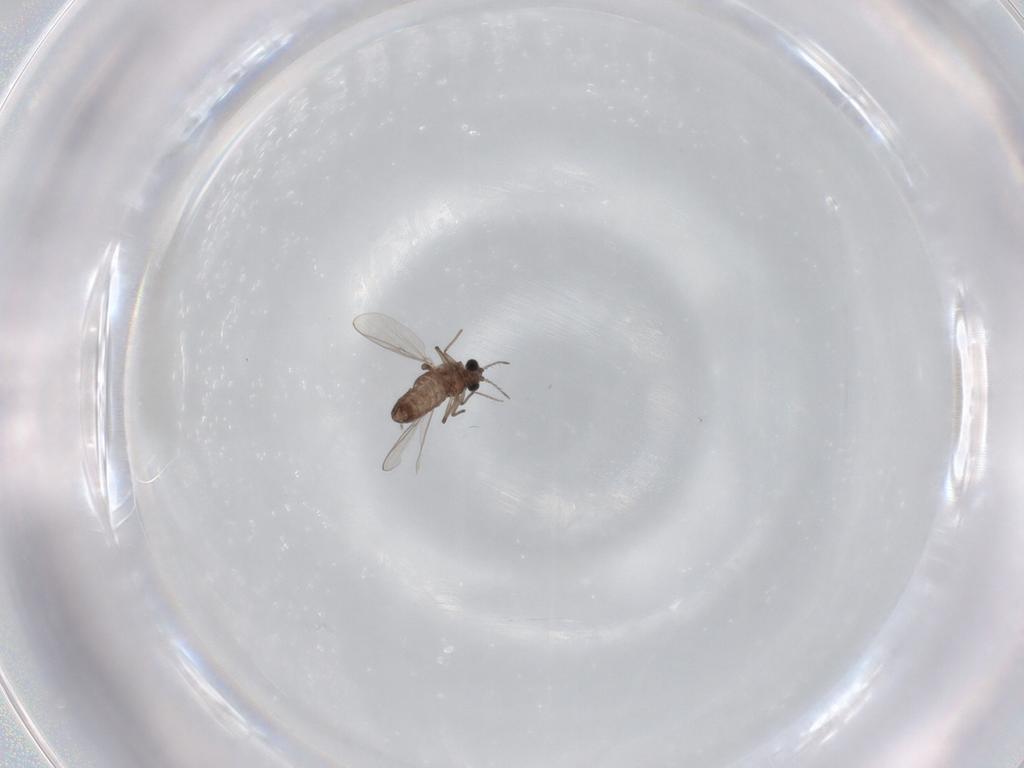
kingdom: Animalia
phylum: Arthropoda
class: Insecta
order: Diptera
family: Chironomidae
